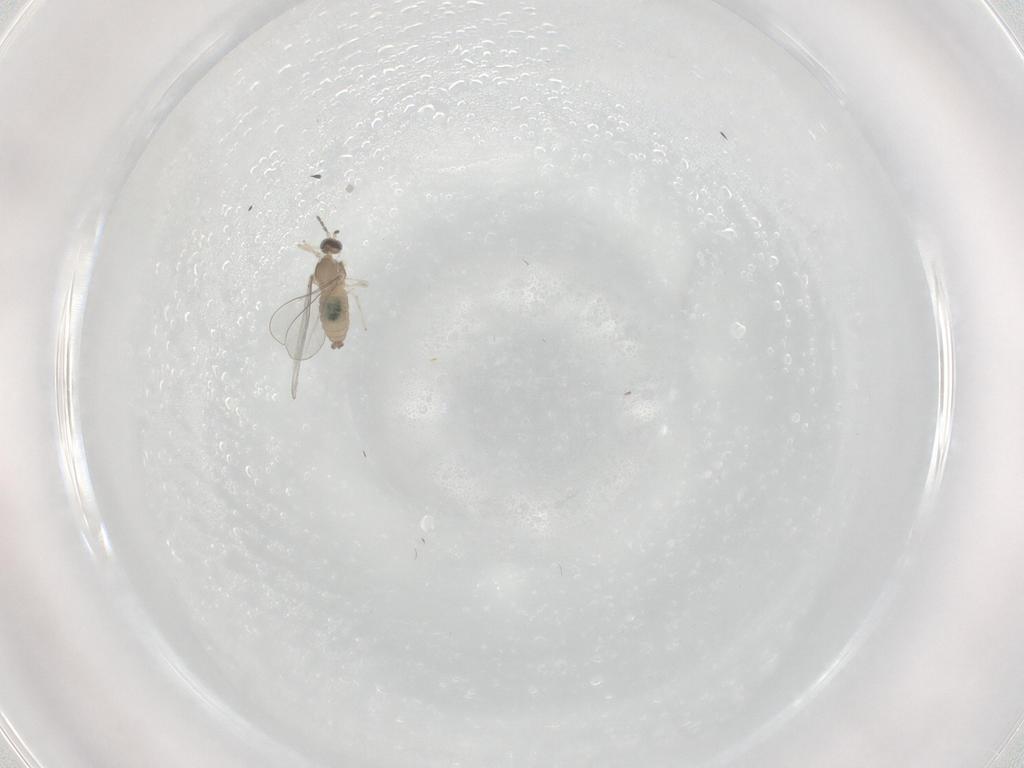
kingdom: Animalia
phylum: Arthropoda
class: Insecta
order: Diptera
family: Cecidomyiidae
